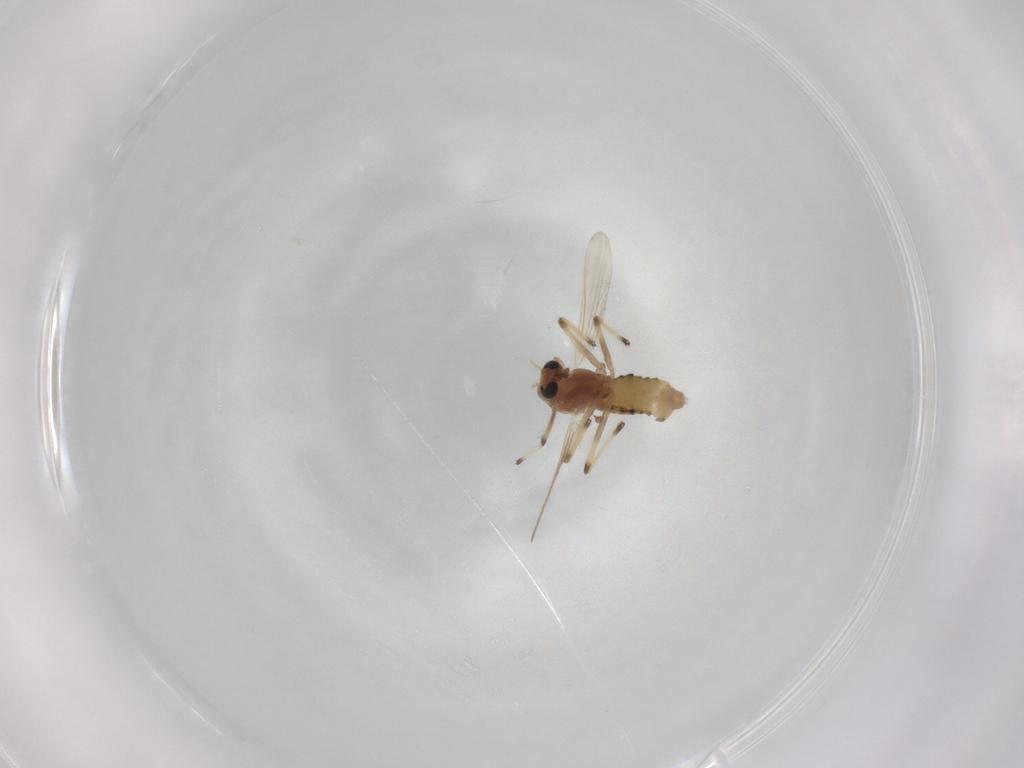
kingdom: Animalia
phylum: Arthropoda
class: Insecta
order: Diptera
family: Chironomidae
